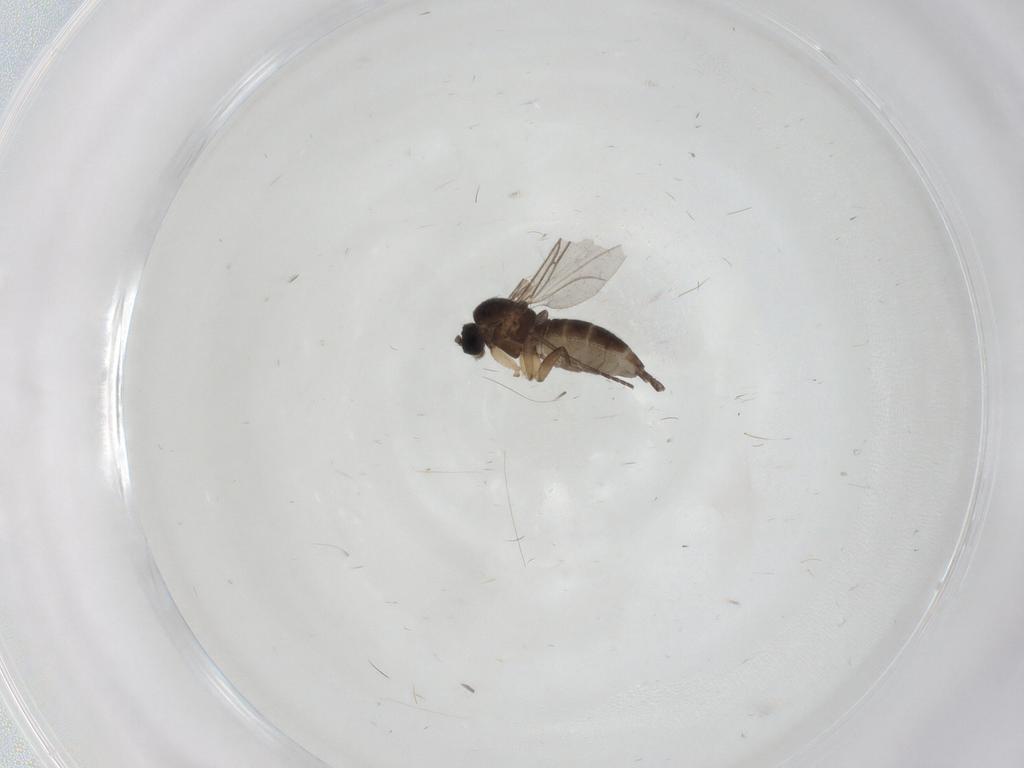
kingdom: Animalia
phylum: Arthropoda
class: Insecta
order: Diptera
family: Sciaridae
